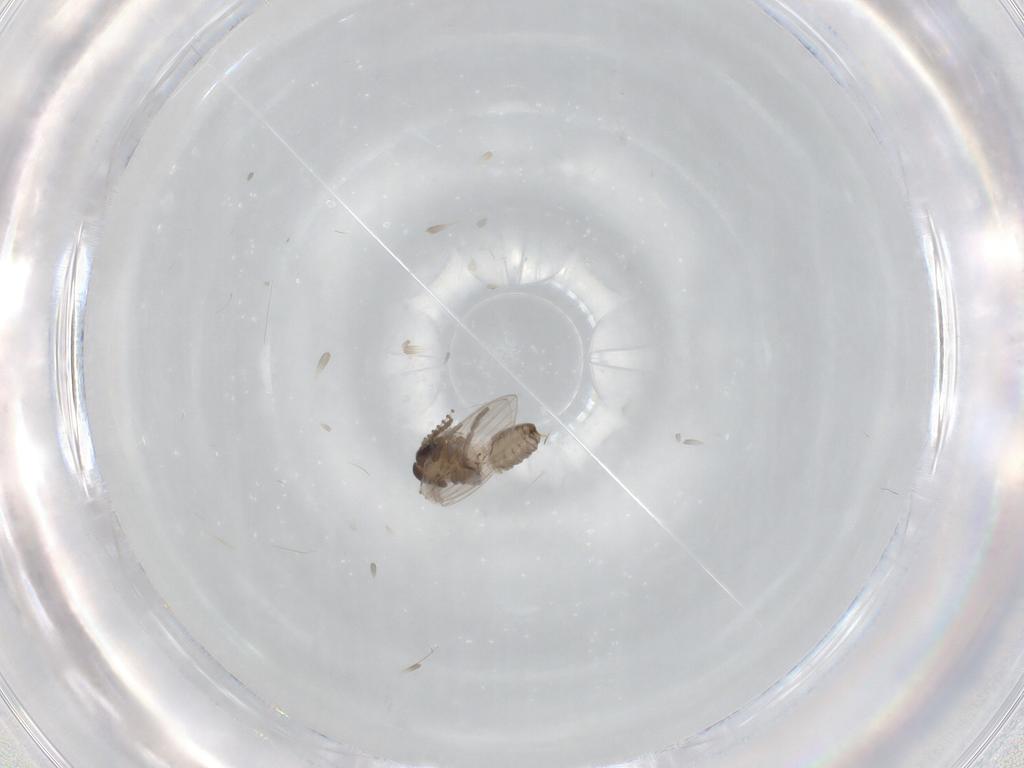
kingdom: Animalia
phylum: Arthropoda
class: Insecta
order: Diptera
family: Psychodidae
